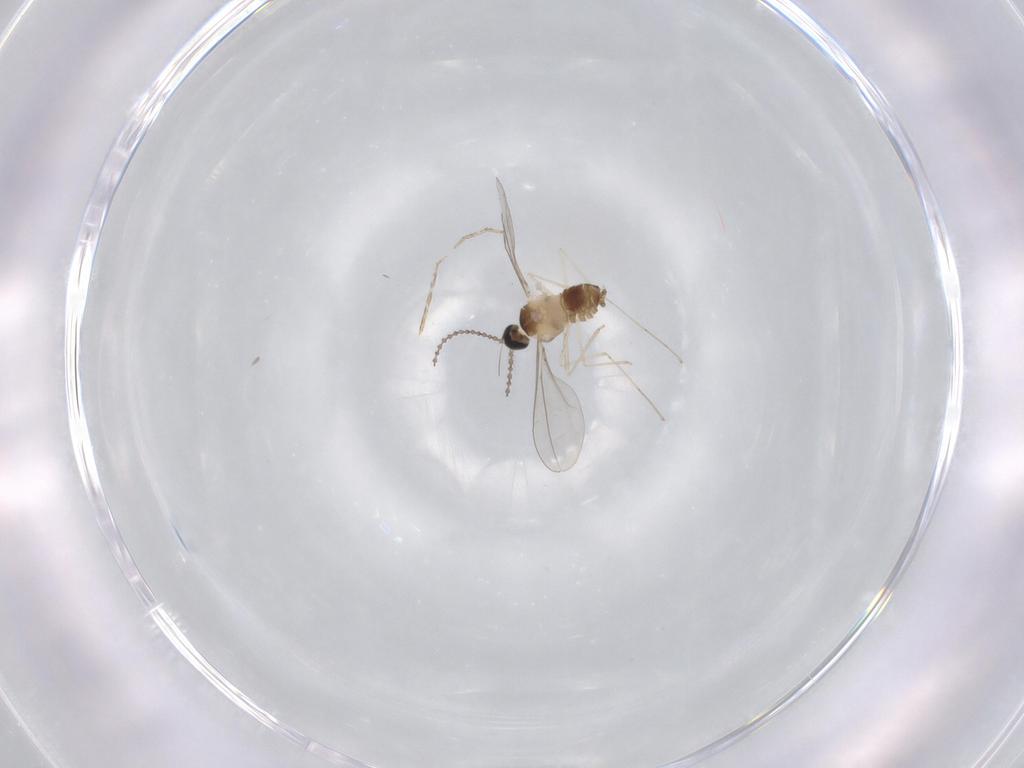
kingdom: Animalia
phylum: Arthropoda
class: Insecta
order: Diptera
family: Cecidomyiidae
